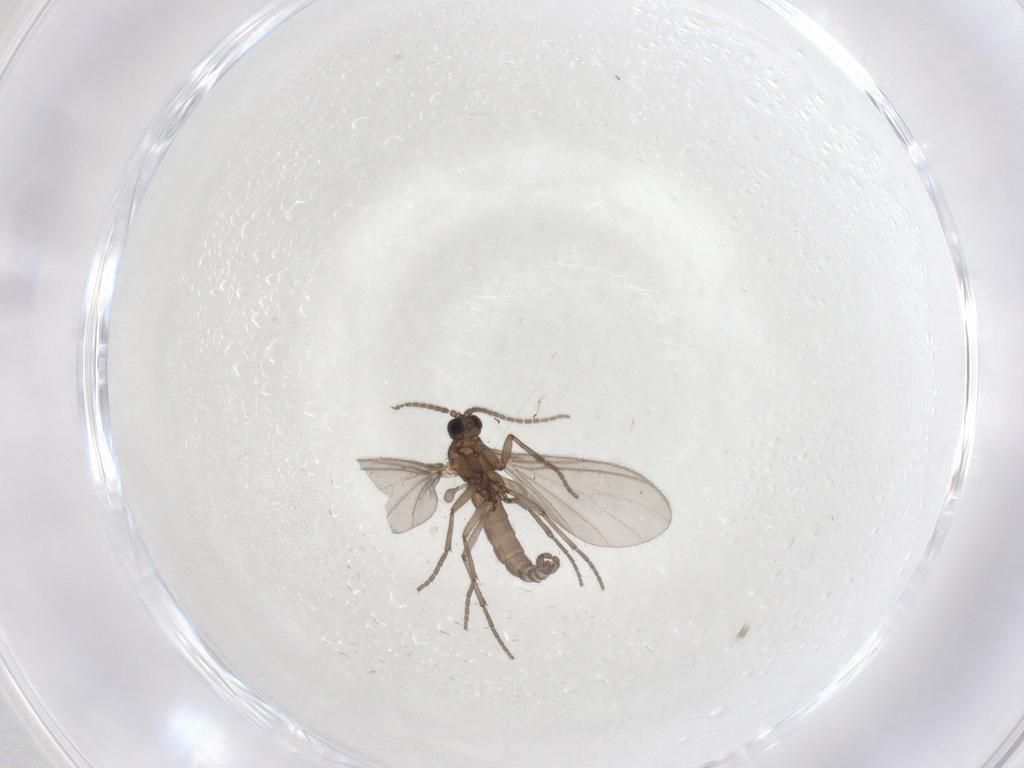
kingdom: Animalia
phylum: Arthropoda
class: Insecta
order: Diptera
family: Sciaridae
